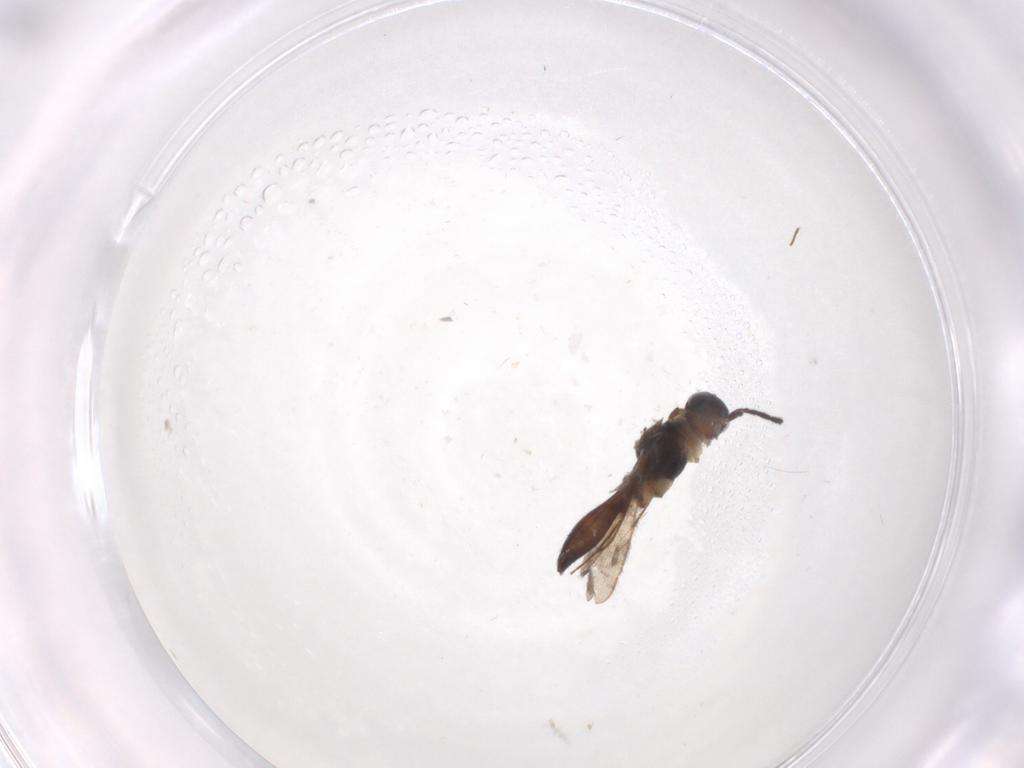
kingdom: Animalia
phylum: Arthropoda
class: Insecta
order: Diptera
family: Cecidomyiidae
